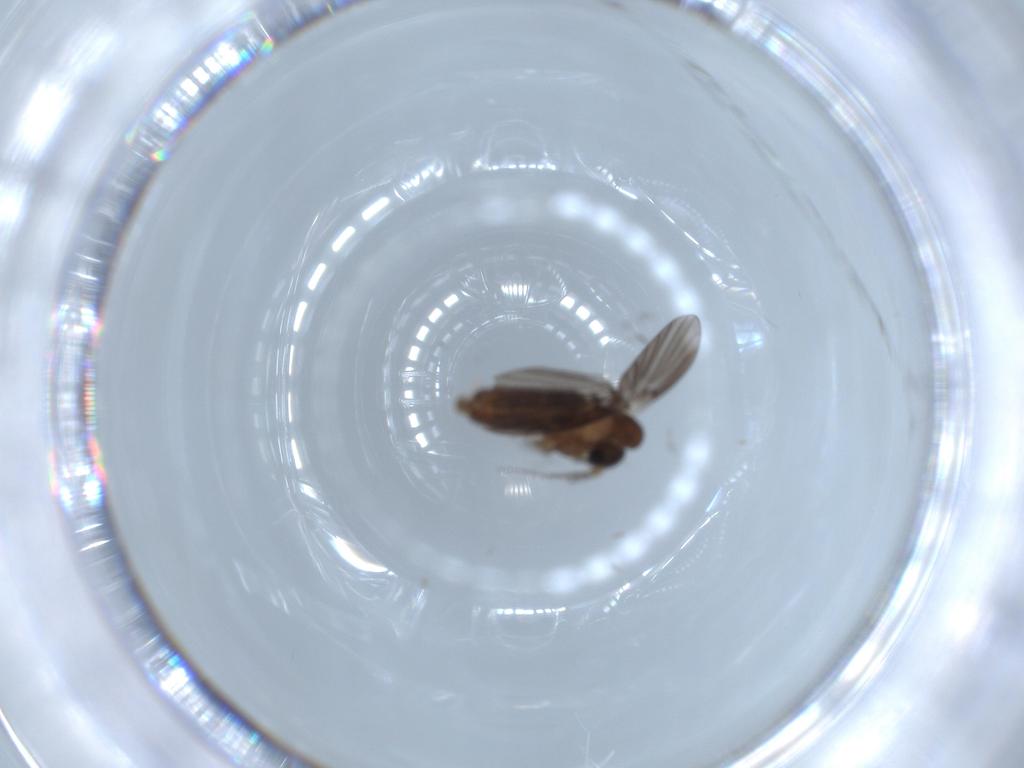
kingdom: Animalia
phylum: Arthropoda
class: Insecta
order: Diptera
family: Psychodidae
